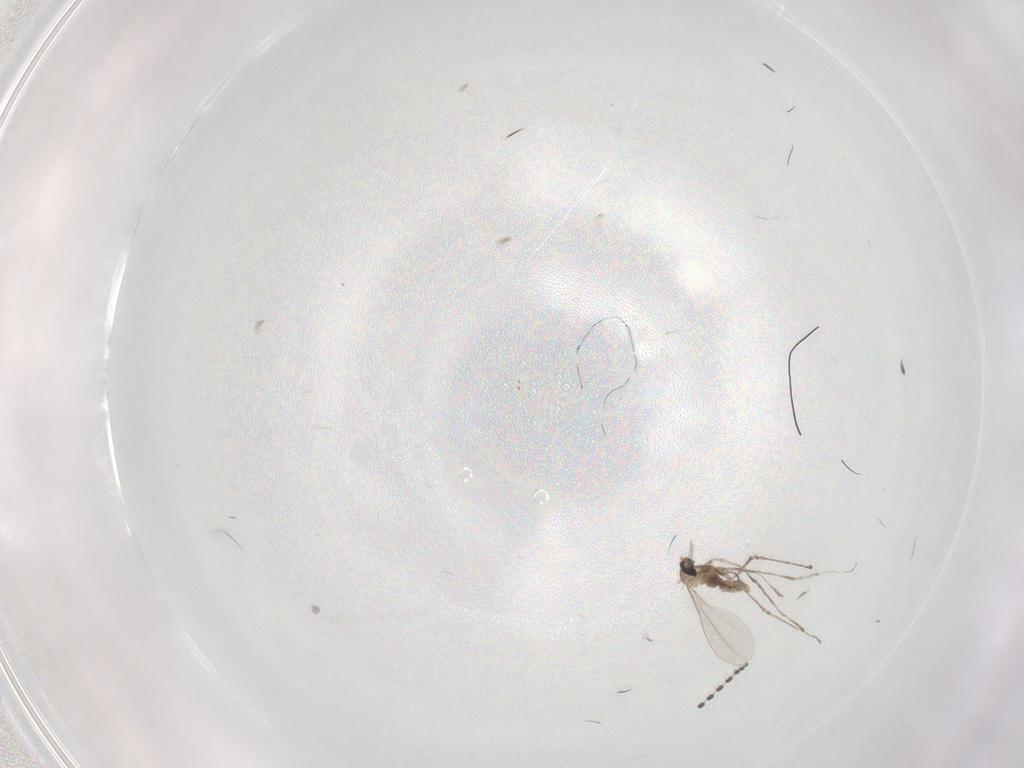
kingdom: Animalia
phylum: Arthropoda
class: Insecta
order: Diptera
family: Cecidomyiidae
